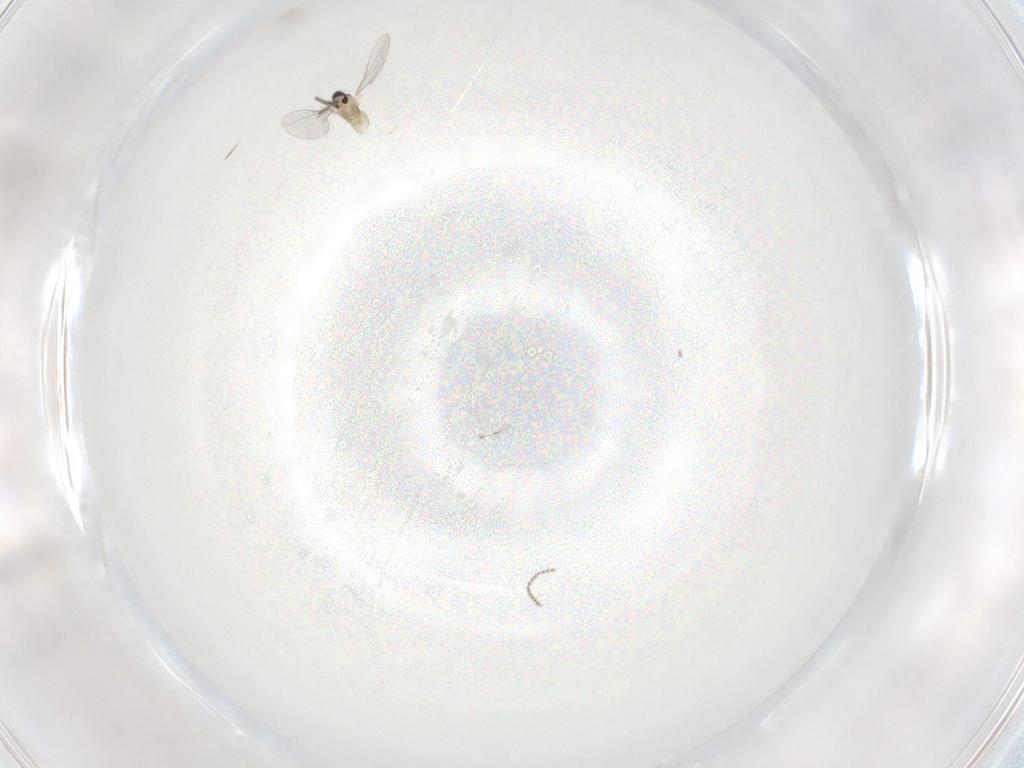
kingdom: Animalia
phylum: Arthropoda
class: Insecta
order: Diptera
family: Cecidomyiidae
